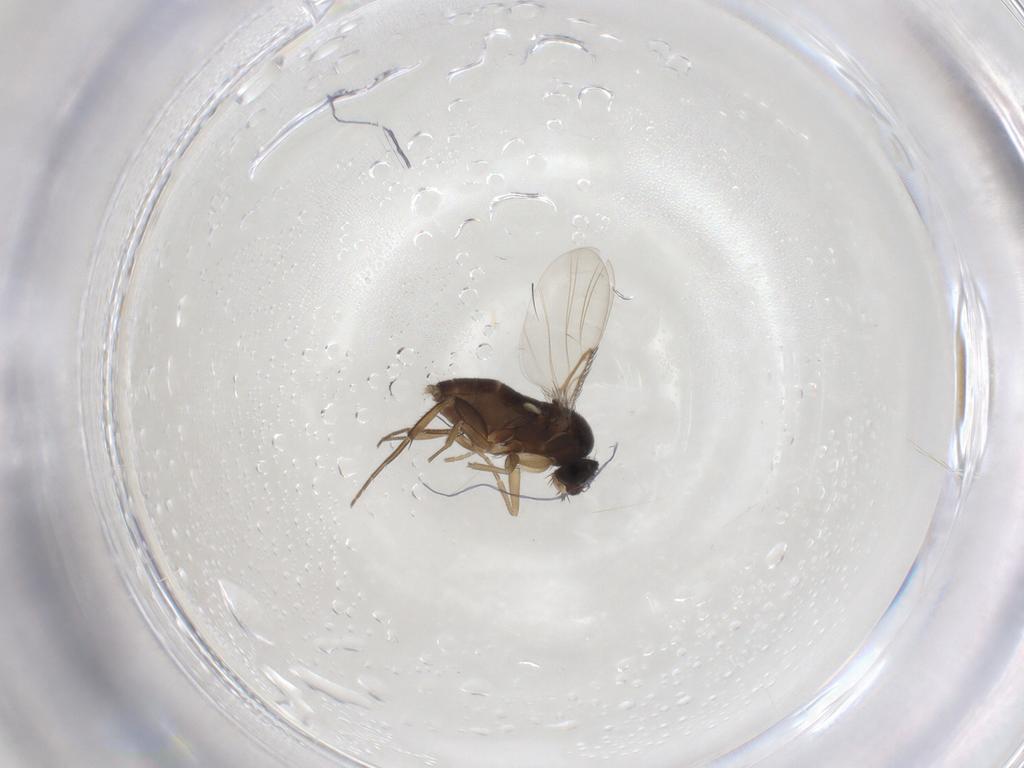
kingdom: Animalia
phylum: Arthropoda
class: Insecta
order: Diptera
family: Phoridae
